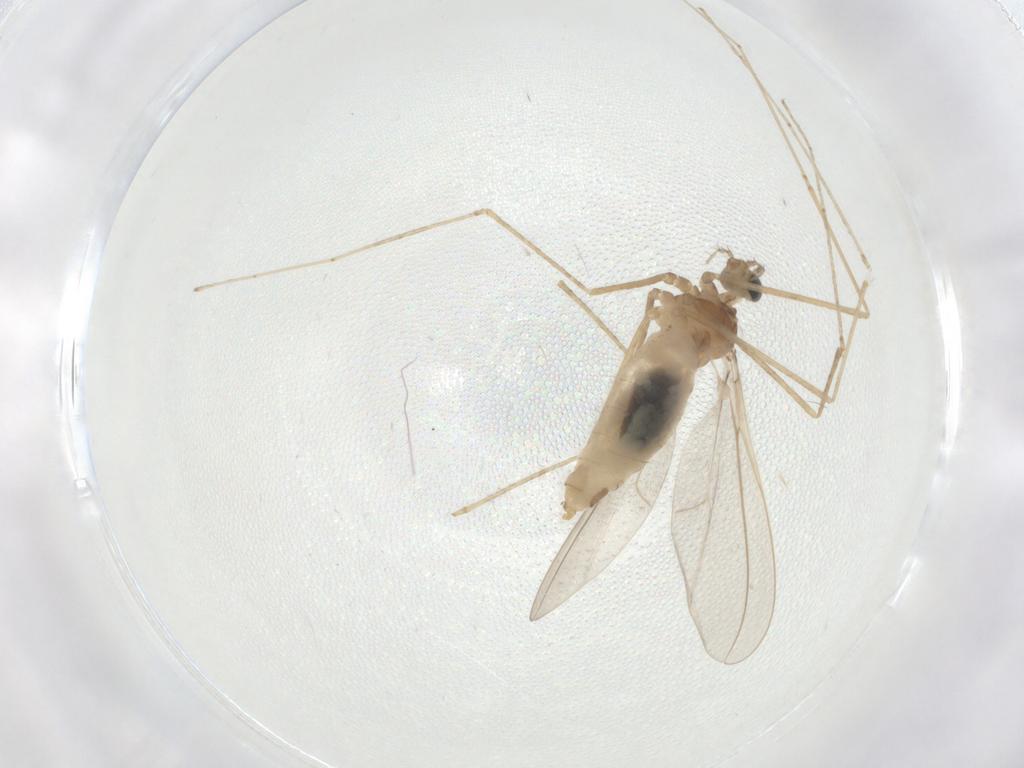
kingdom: Animalia
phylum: Arthropoda
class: Insecta
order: Diptera
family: Cecidomyiidae
